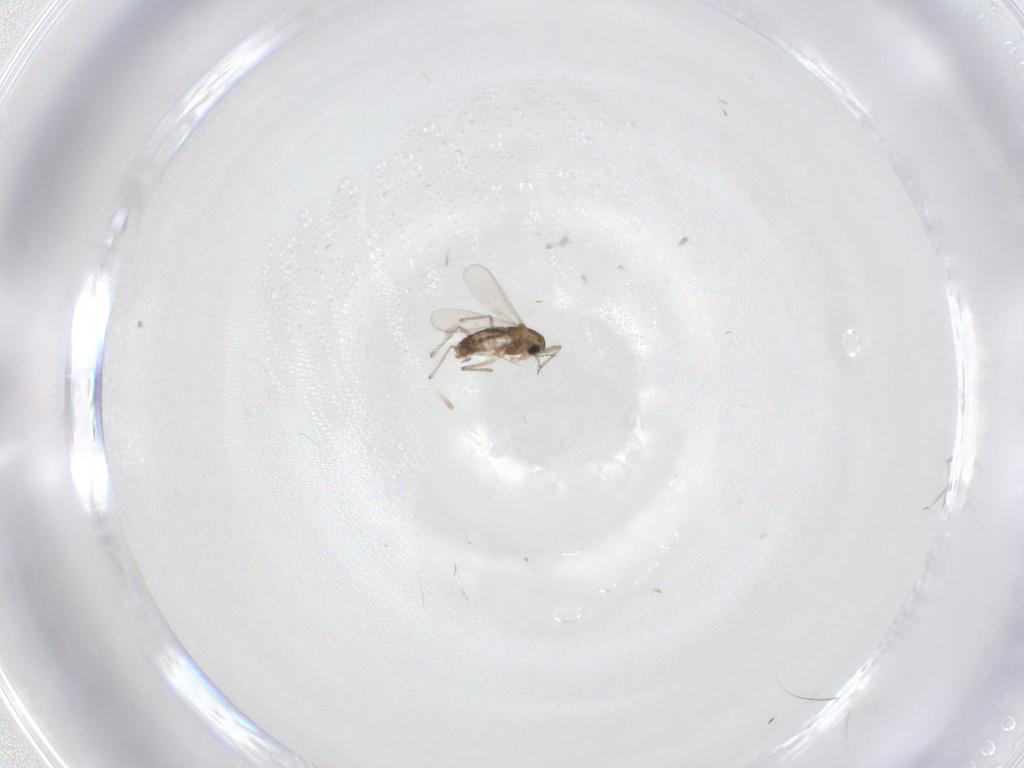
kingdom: Animalia
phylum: Arthropoda
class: Insecta
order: Diptera
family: Chironomidae
